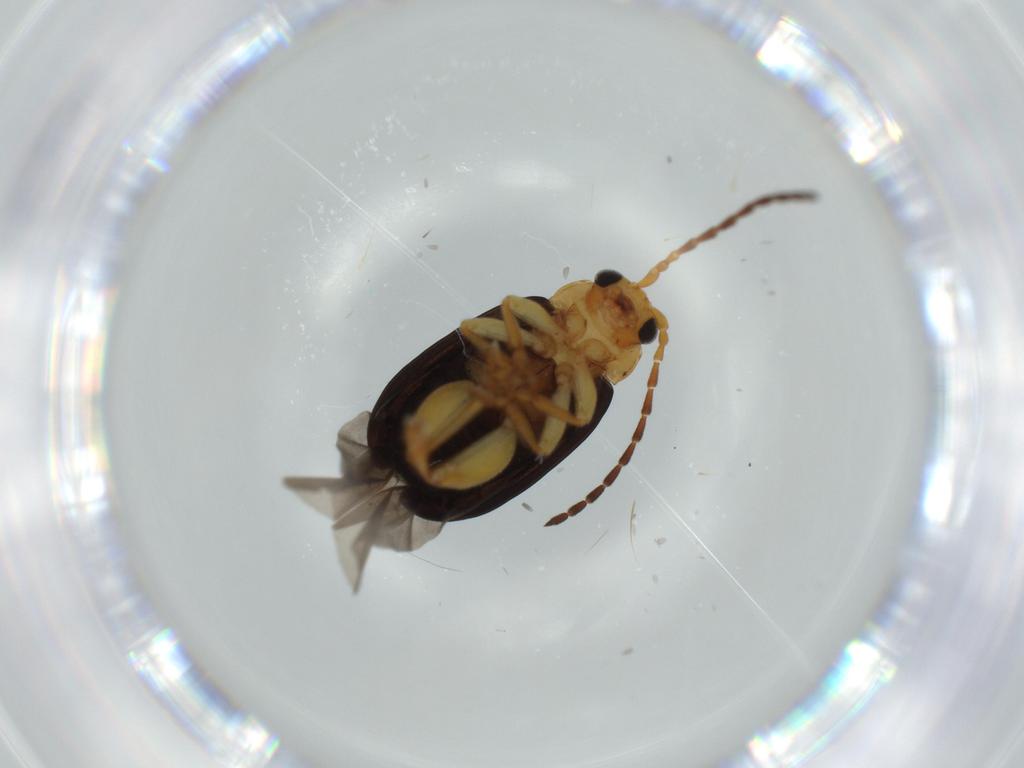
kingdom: Animalia
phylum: Arthropoda
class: Insecta
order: Coleoptera
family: Chrysomelidae
